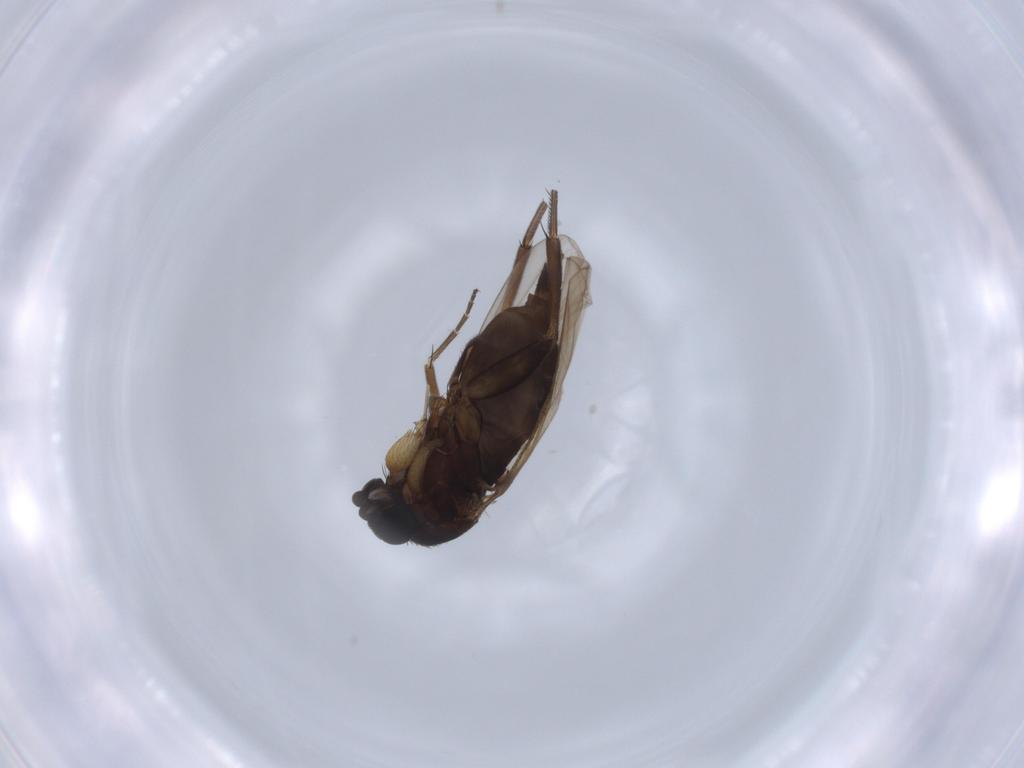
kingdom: Animalia
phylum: Arthropoda
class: Insecta
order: Diptera
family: Cecidomyiidae
